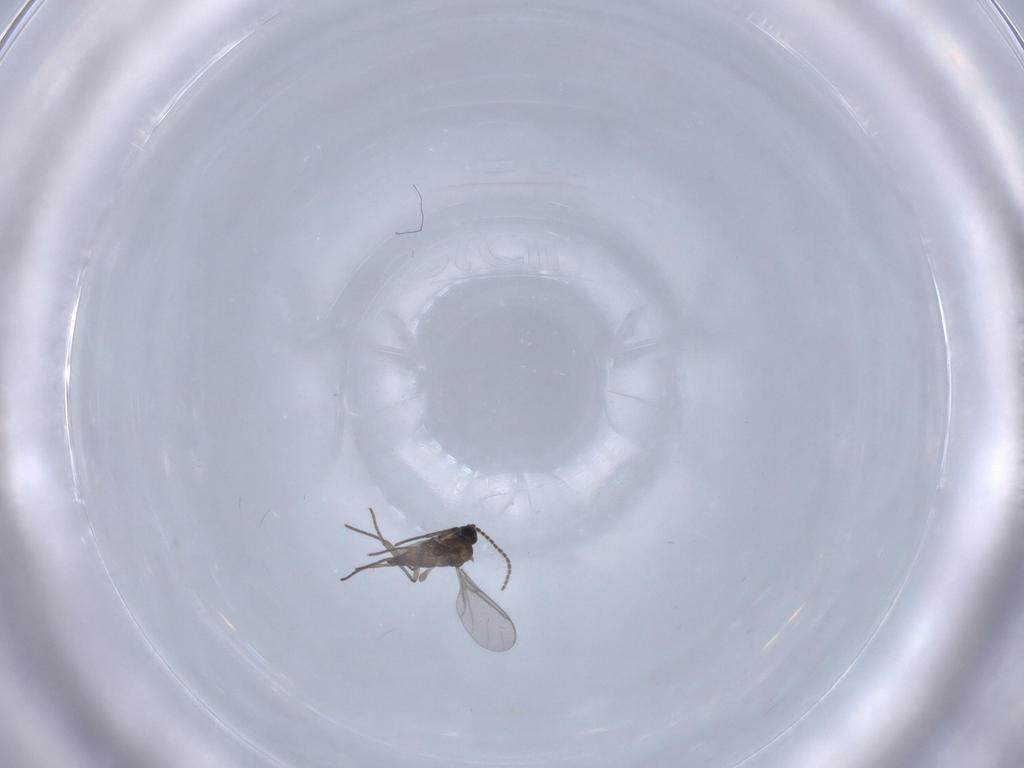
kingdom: Animalia
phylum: Arthropoda
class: Insecta
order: Diptera
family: Sciaridae
